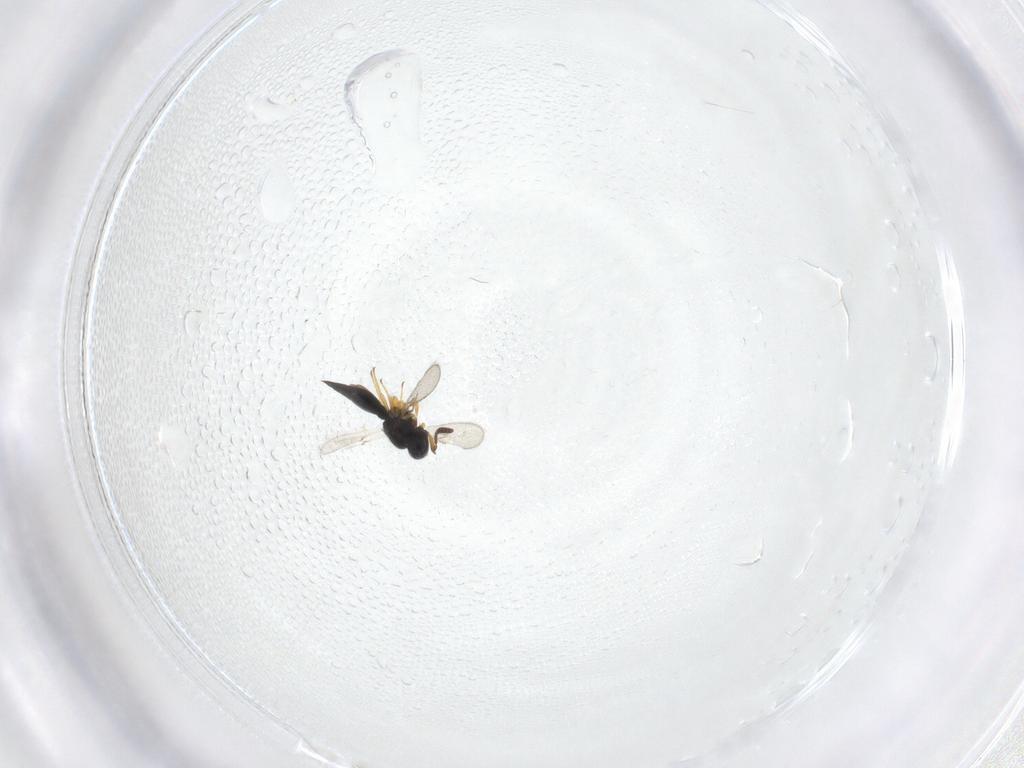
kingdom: Animalia
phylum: Arthropoda
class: Insecta
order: Hymenoptera
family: Scelionidae
